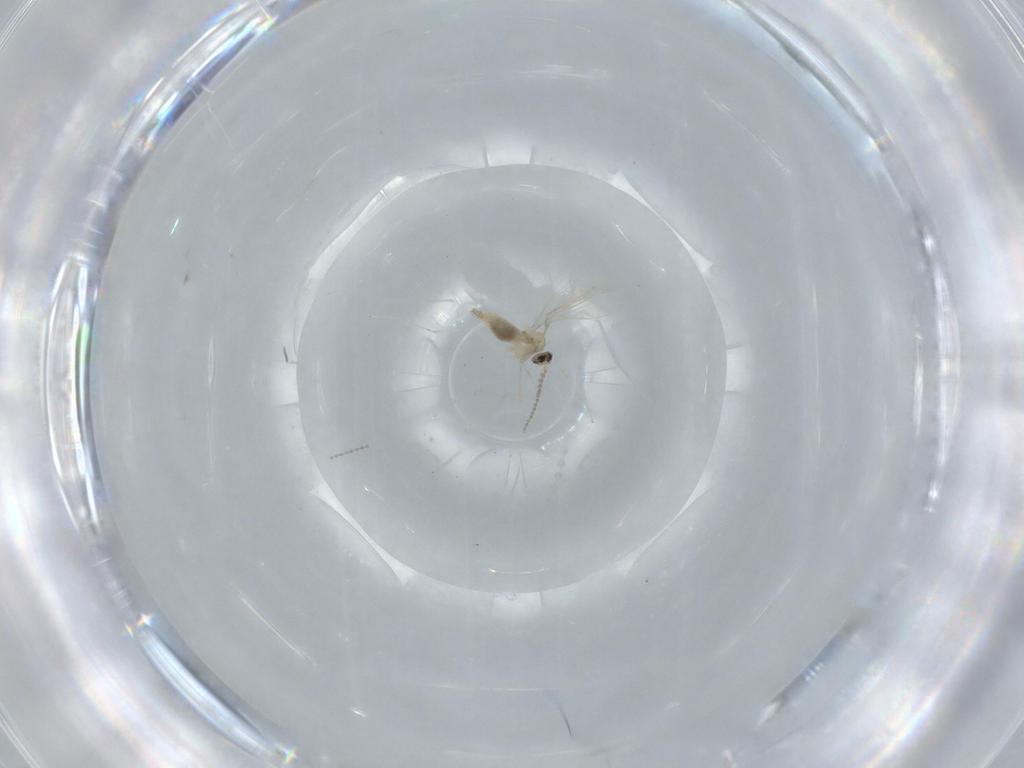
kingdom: Animalia
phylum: Arthropoda
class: Insecta
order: Diptera
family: Cecidomyiidae
